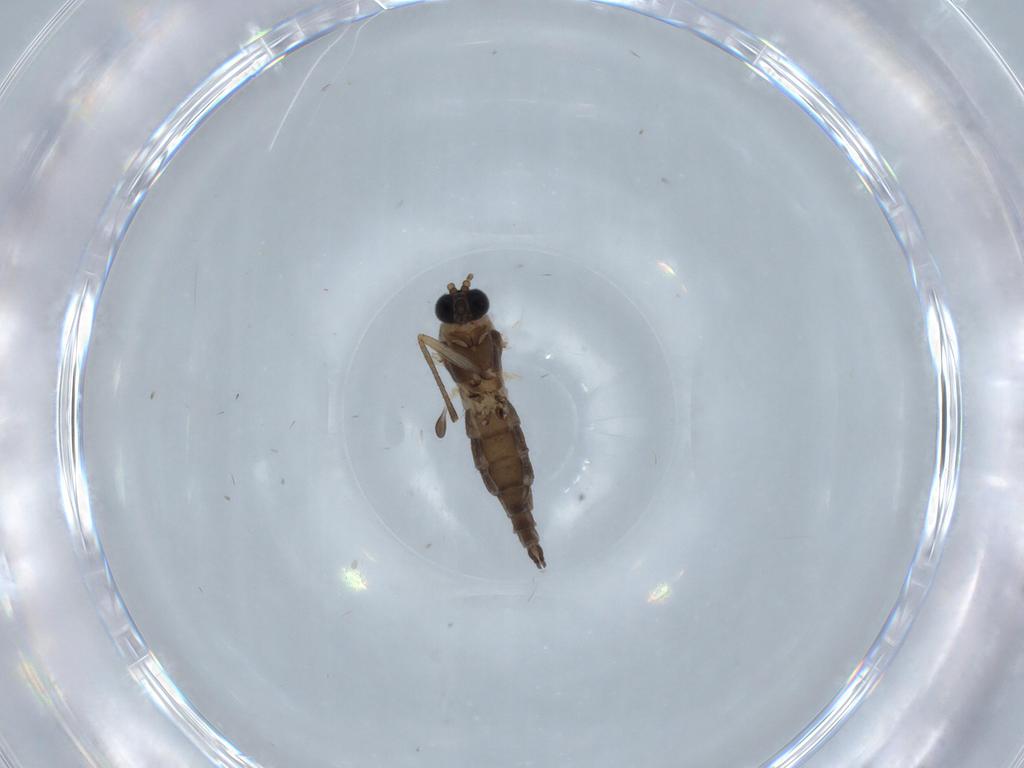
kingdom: Animalia
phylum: Arthropoda
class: Insecta
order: Diptera
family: Sciaridae
